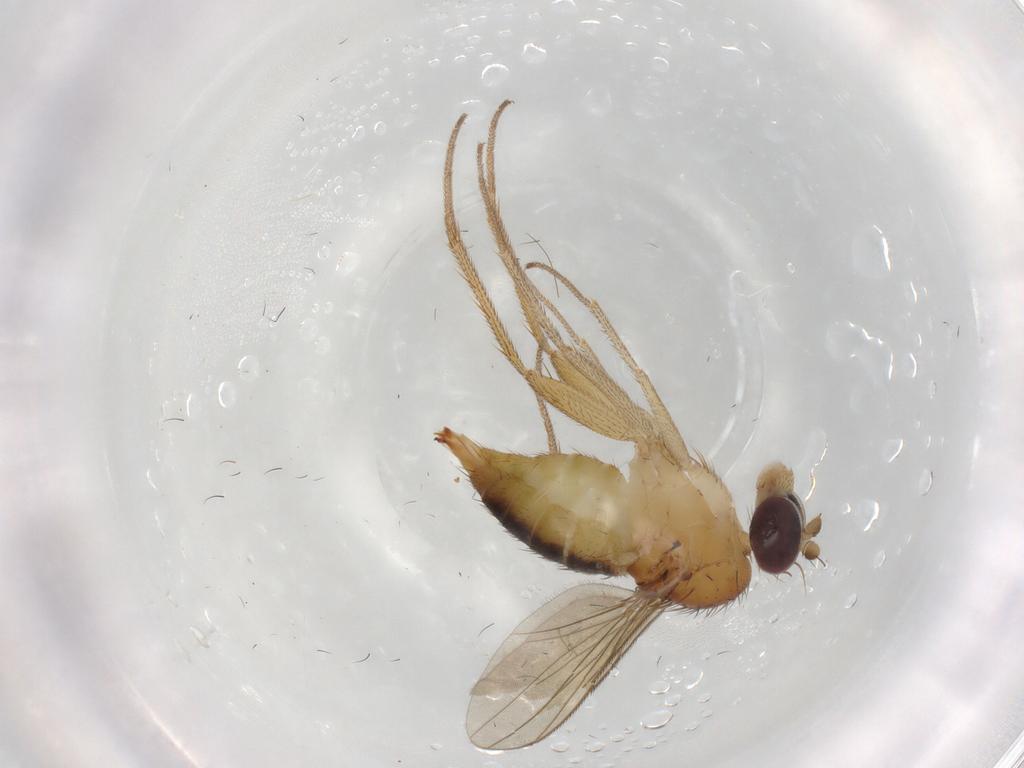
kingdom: Animalia
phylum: Arthropoda
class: Insecta
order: Diptera
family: Dolichopodidae
